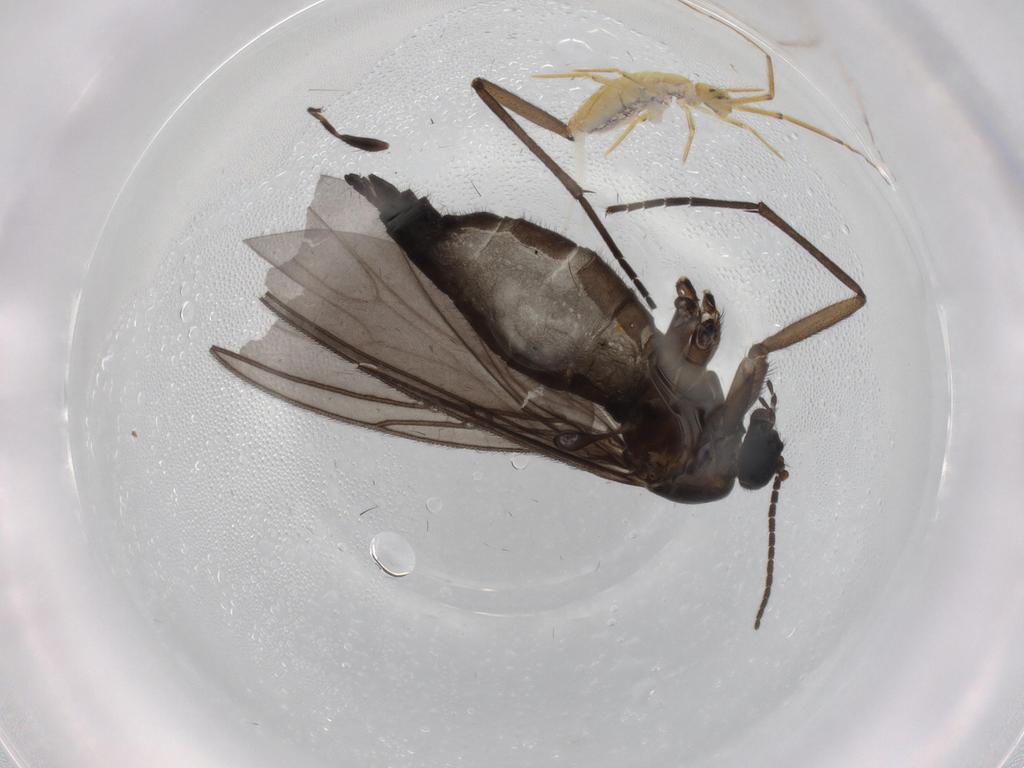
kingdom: Animalia
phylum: Arthropoda
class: Insecta
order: Diptera
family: Sciaridae
